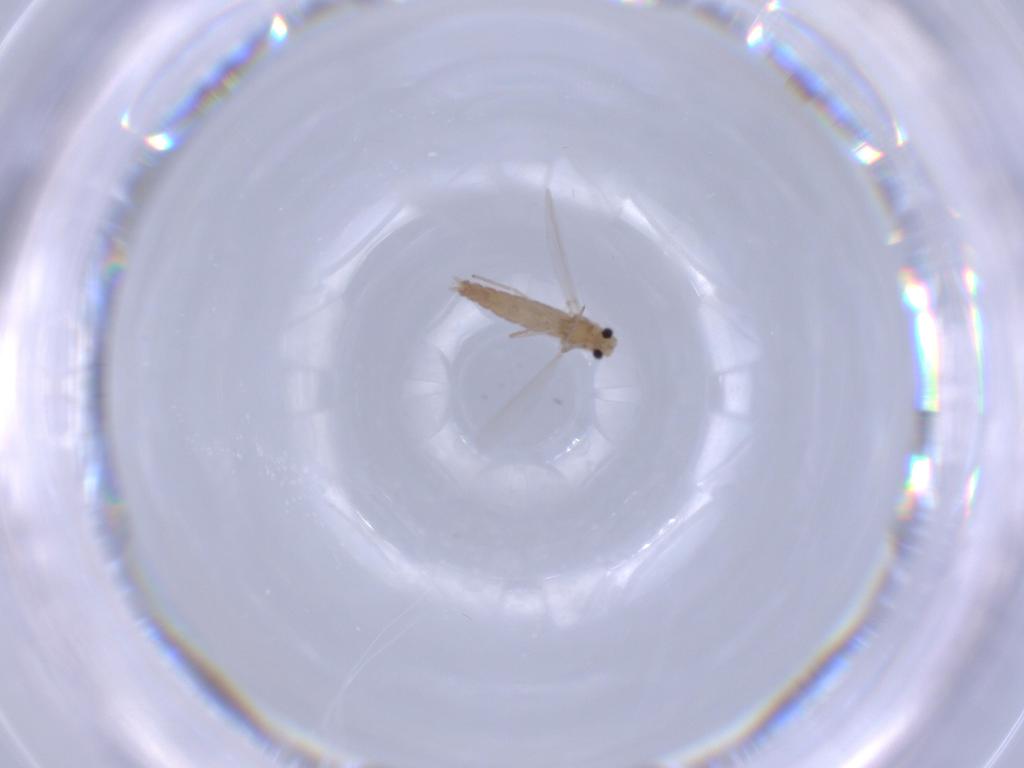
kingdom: Animalia
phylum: Arthropoda
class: Insecta
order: Diptera
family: Chironomidae
